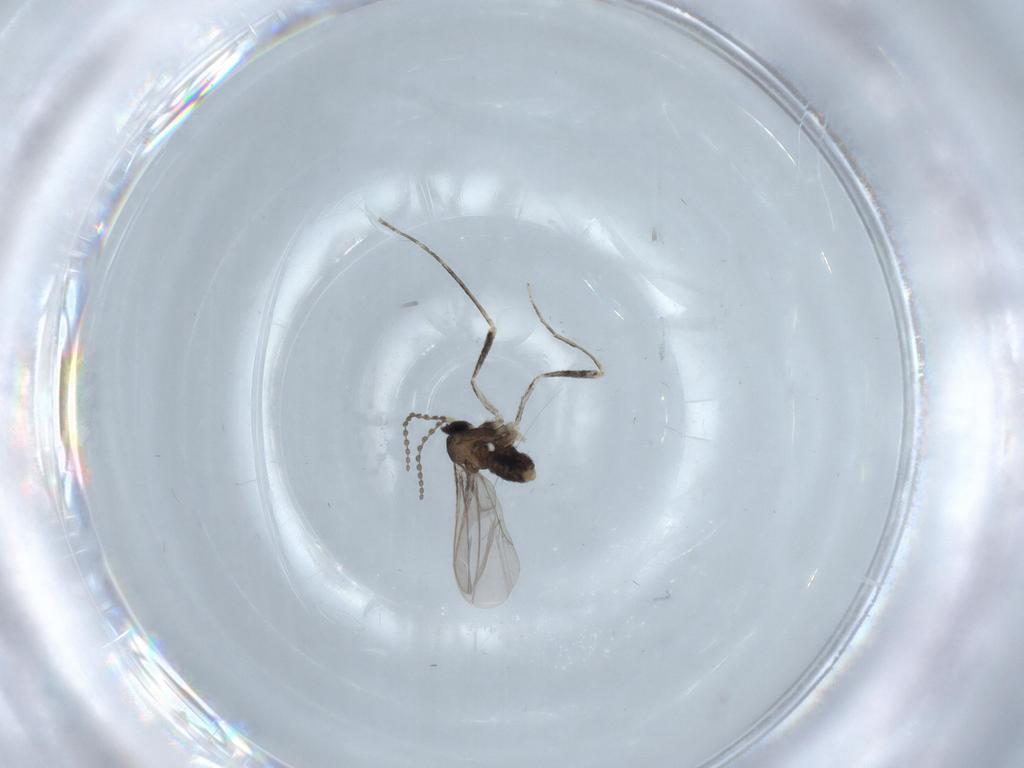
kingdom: Animalia
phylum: Arthropoda
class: Insecta
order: Diptera
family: Cecidomyiidae
